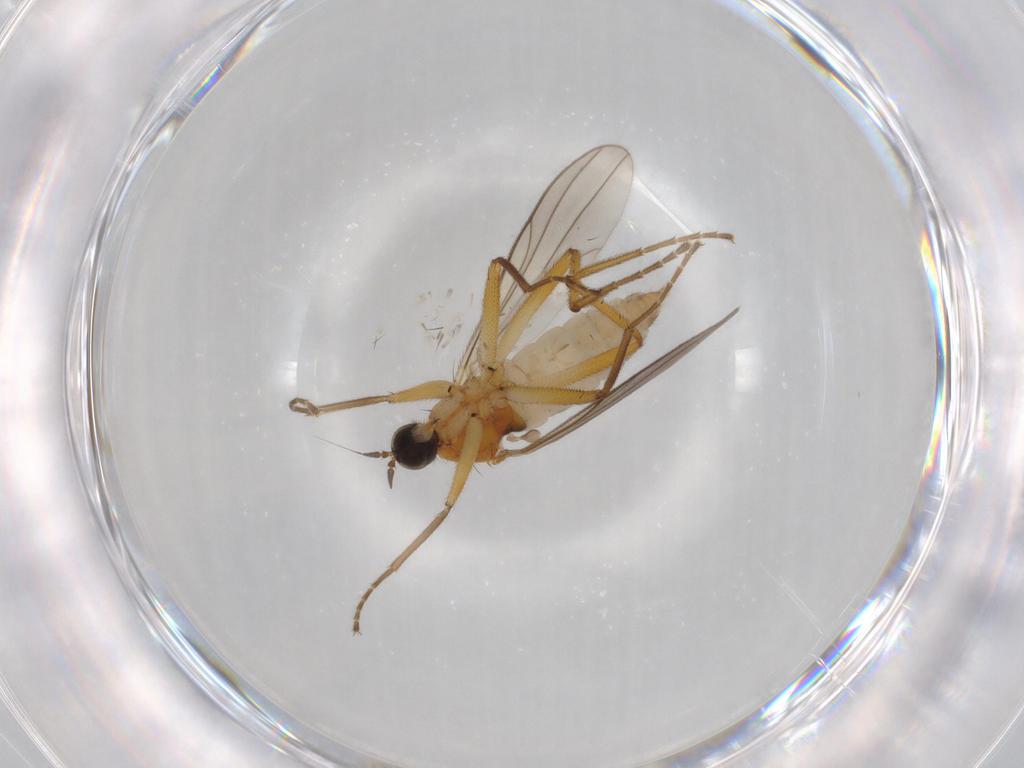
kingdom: Animalia
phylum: Arthropoda
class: Insecta
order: Diptera
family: Hybotidae
